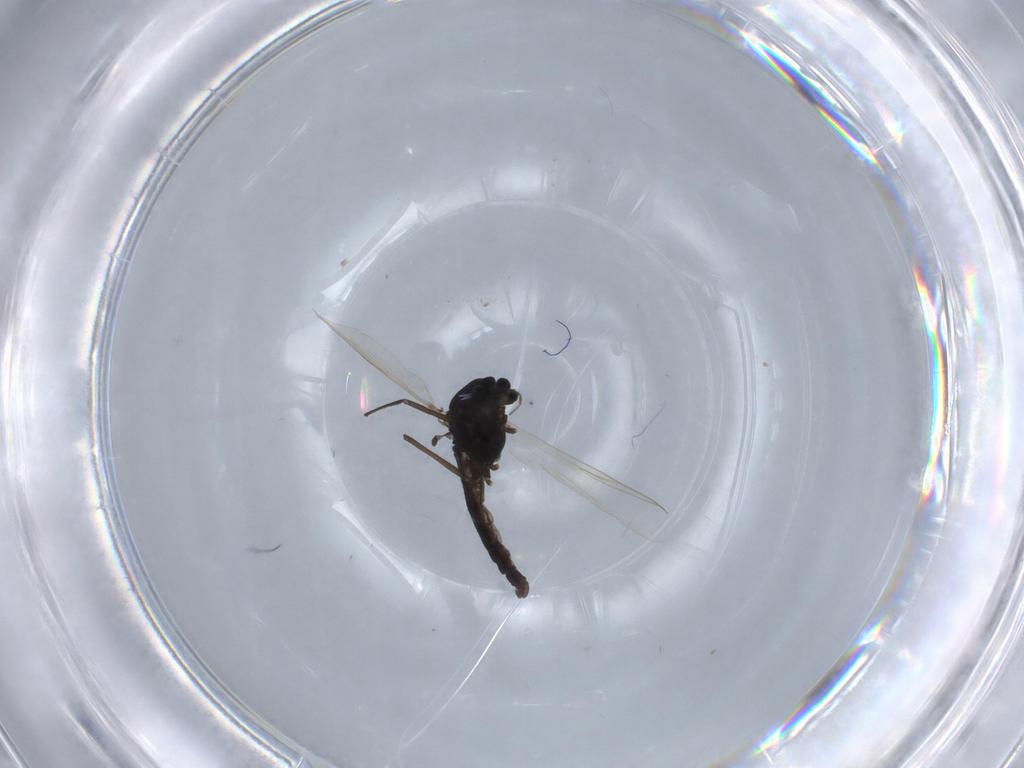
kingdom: Animalia
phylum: Arthropoda
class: Insecta
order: Diptera
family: Chironomidae
